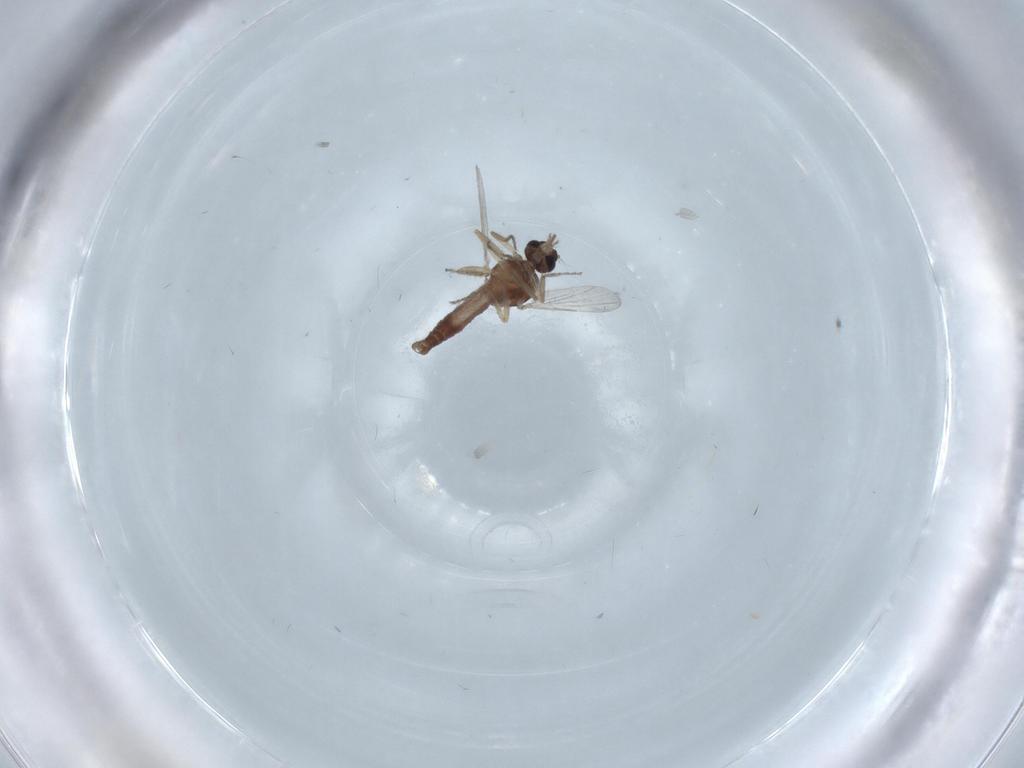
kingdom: Animalia
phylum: Arthropoda
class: Insecta
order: Diptera
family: Ceratopogonidae
